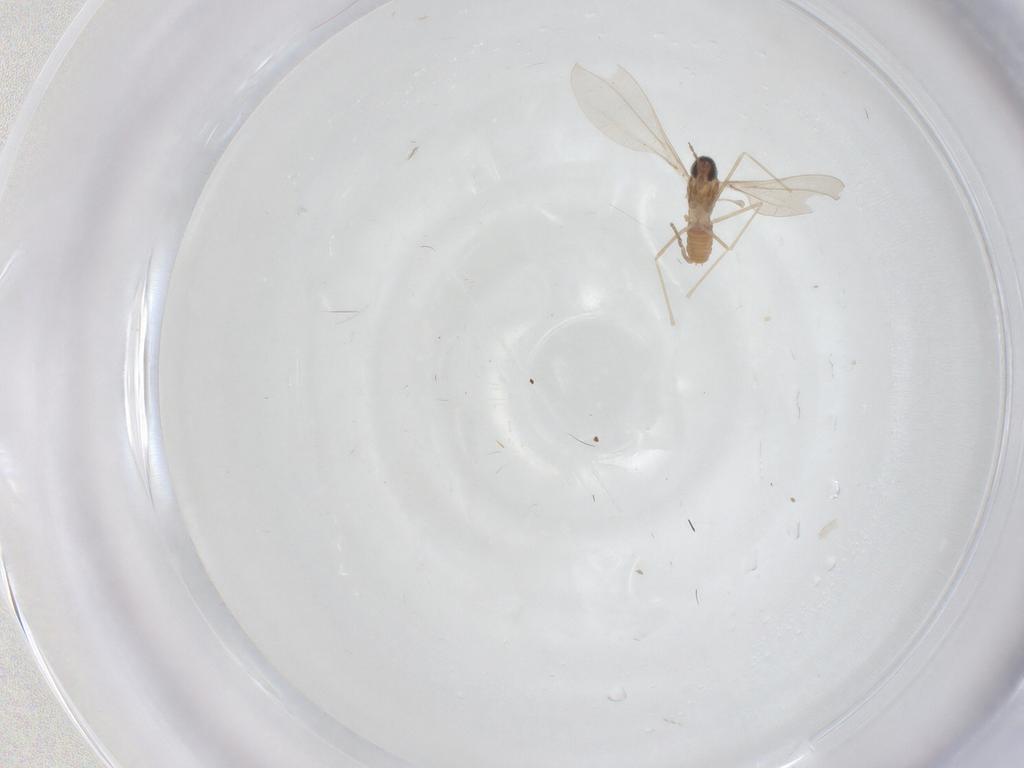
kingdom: Animalia
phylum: Arthropoda
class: Insecta
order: Diptera
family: Cecidomyiidae
